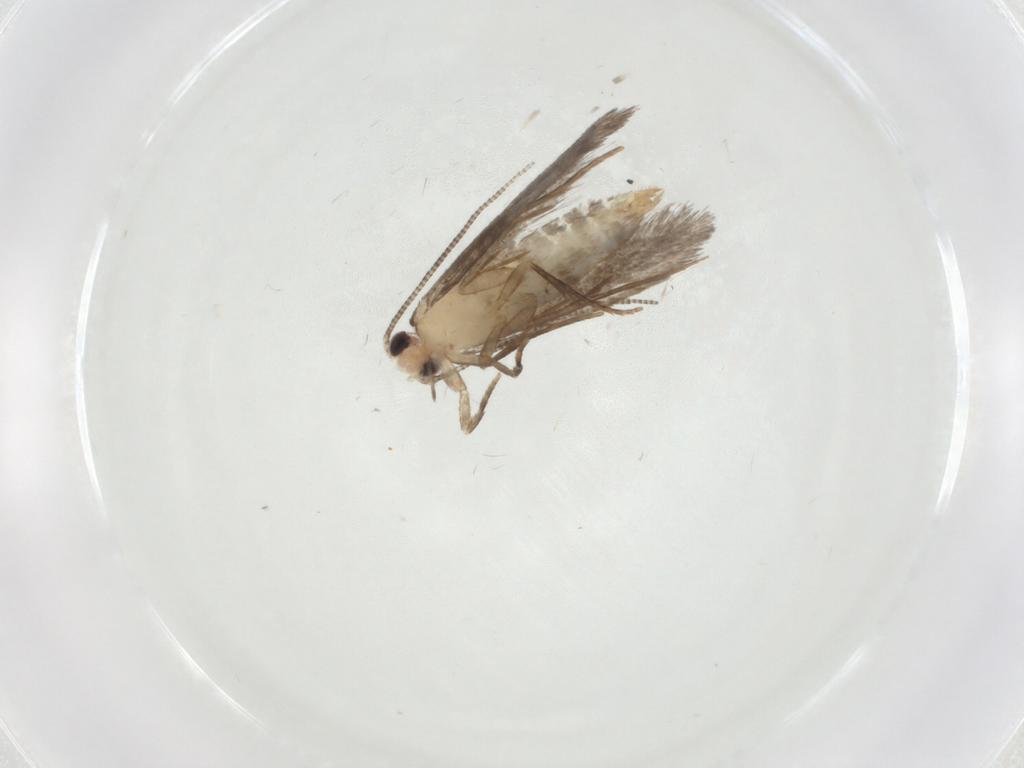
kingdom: Animalia
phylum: Arthropoda
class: Insecta
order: Lepidoptera
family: Tineidae
